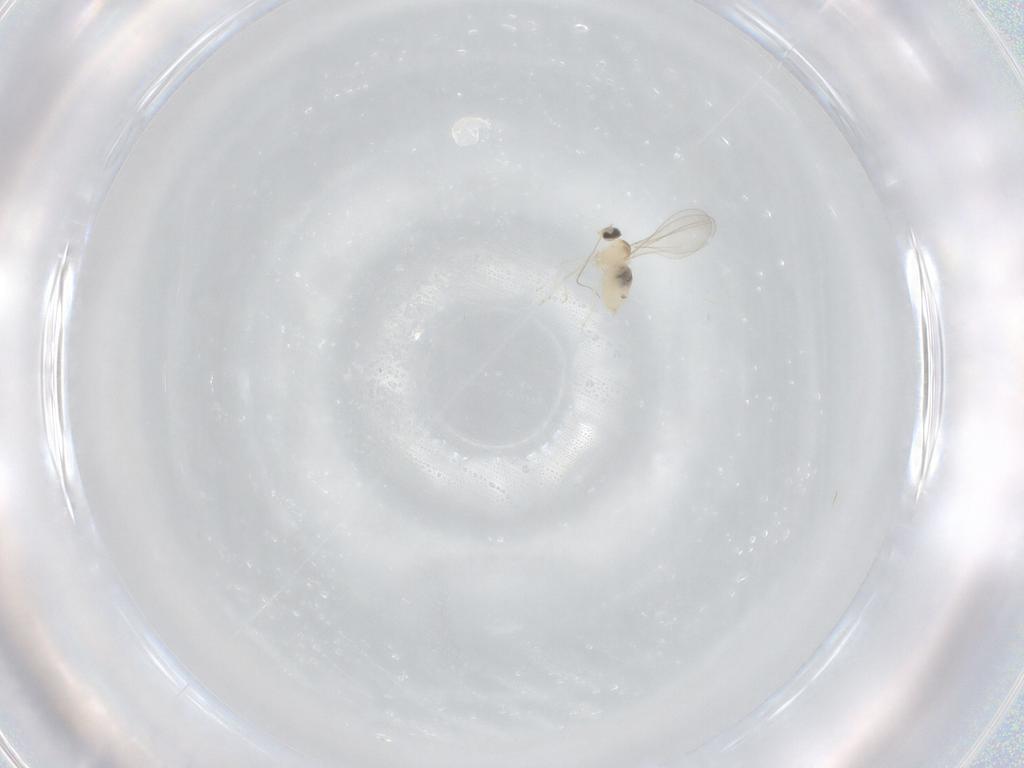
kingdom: Animalia
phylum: Arthropoda
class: Insecta
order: Diptera
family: Cecidomyiidae
